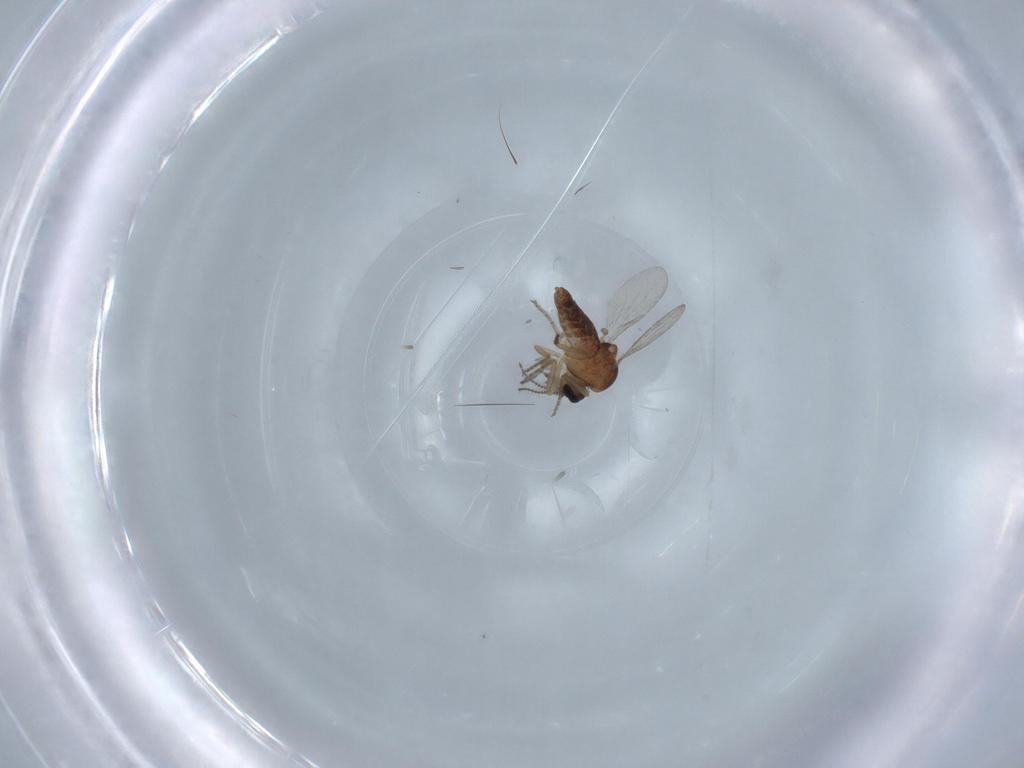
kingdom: Animalia
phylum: Arthropoda
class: Insecta
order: Diptera
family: Ceratopogonidae
